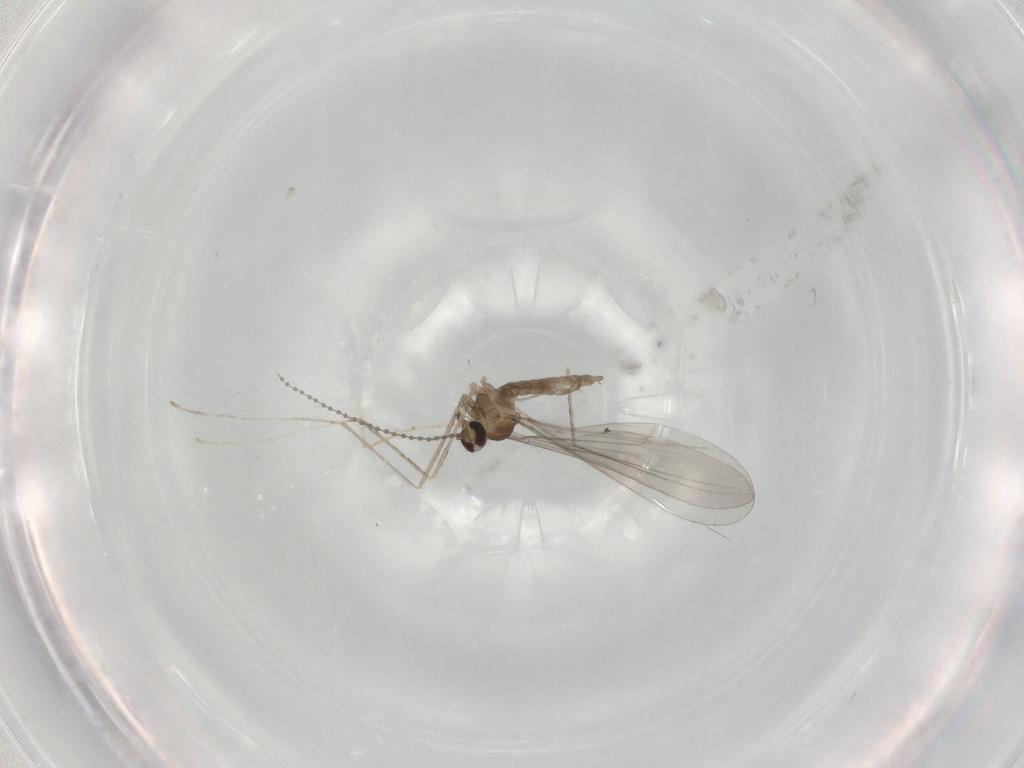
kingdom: Animalia
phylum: Arthropoda
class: Insecta
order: Diptera
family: Cecidomyiidae
